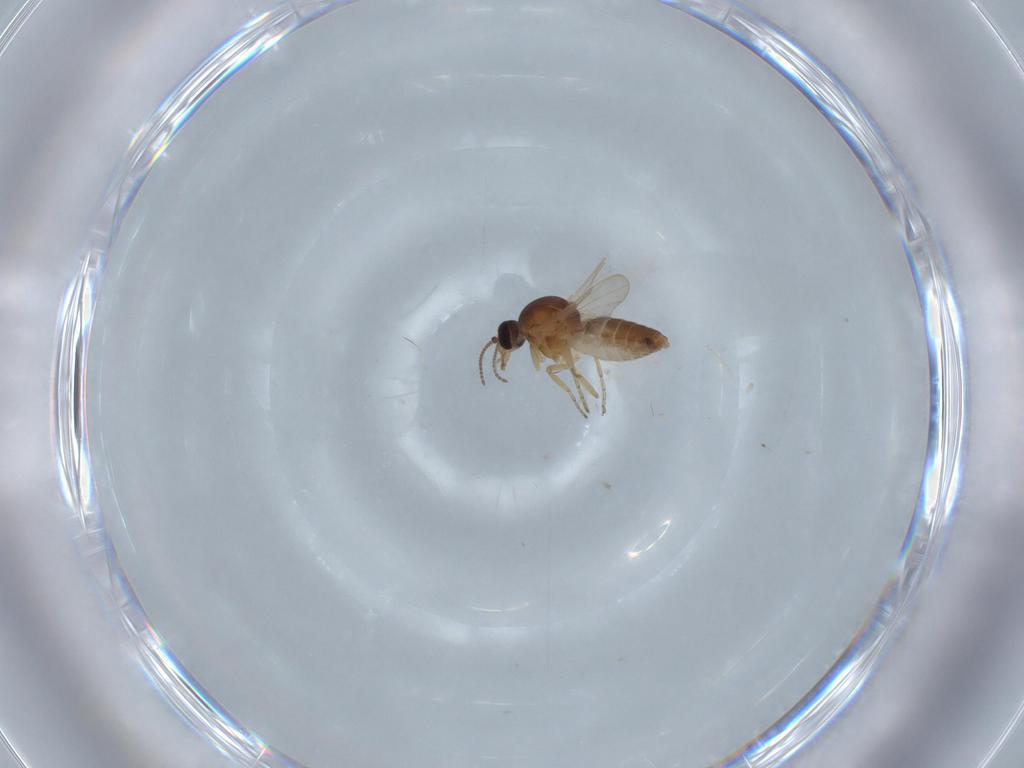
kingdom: Animalia
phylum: Arthropoda
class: Insecta
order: Diptera
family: Ceratopogonidae
